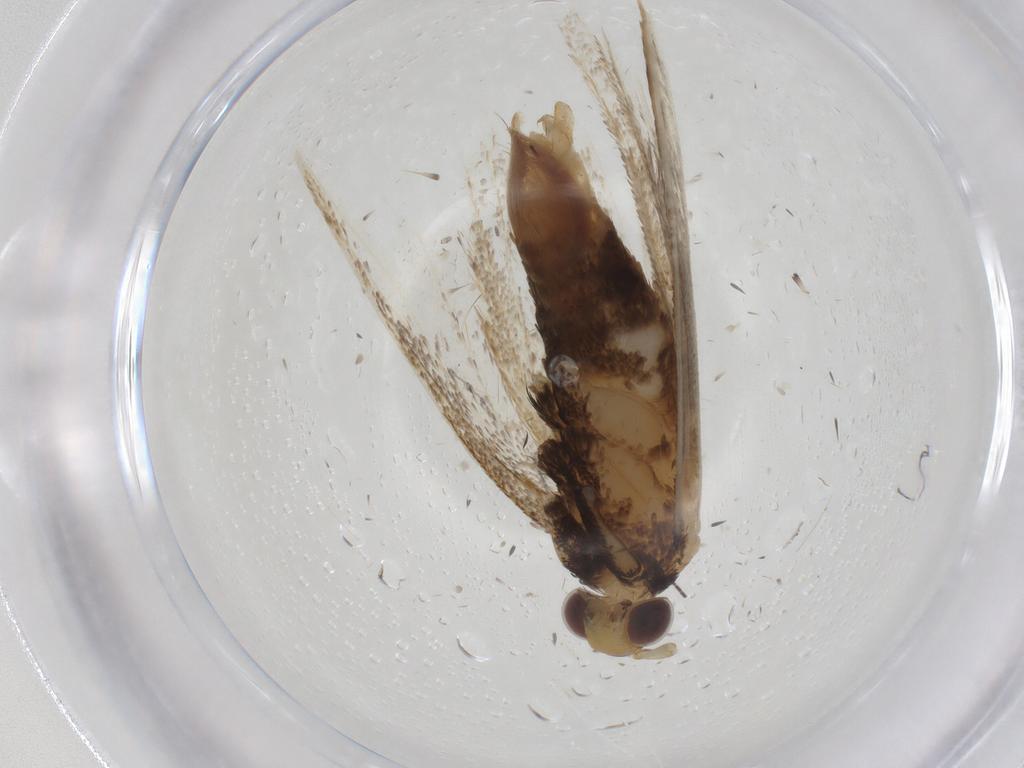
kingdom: Animalia
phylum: Arthropoda
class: Insecta
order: Lepidoptera
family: Lecithoceridae
